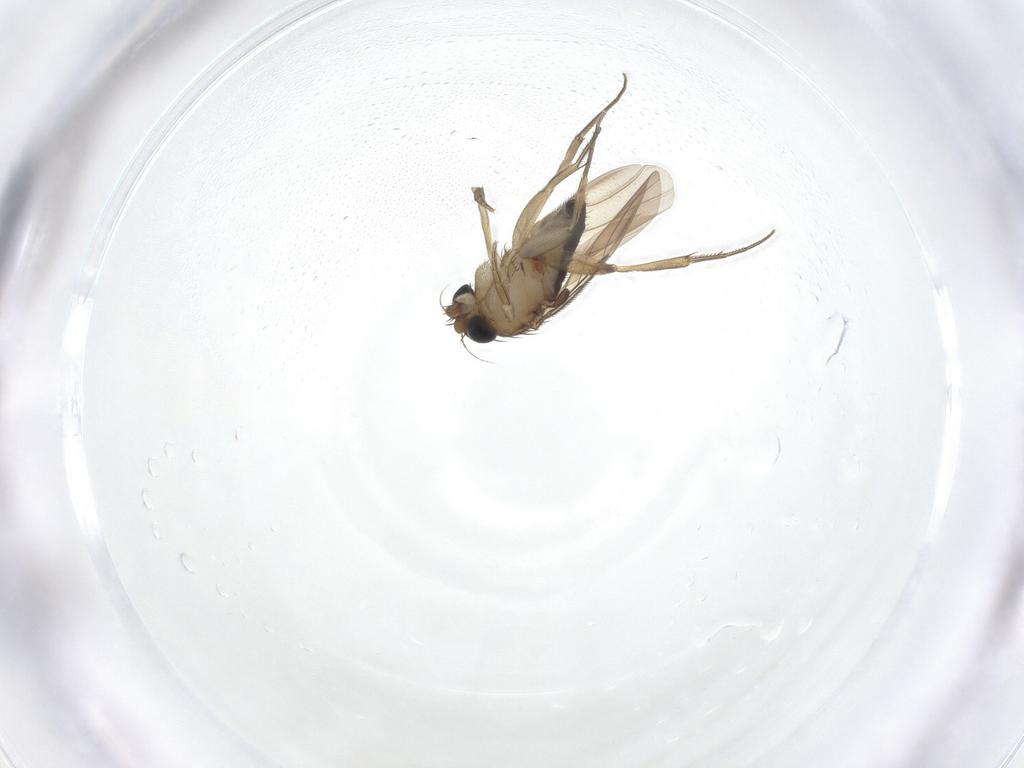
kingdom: Animalia
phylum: Arthropoda
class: Insecta
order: Diptera
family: Phoridae
